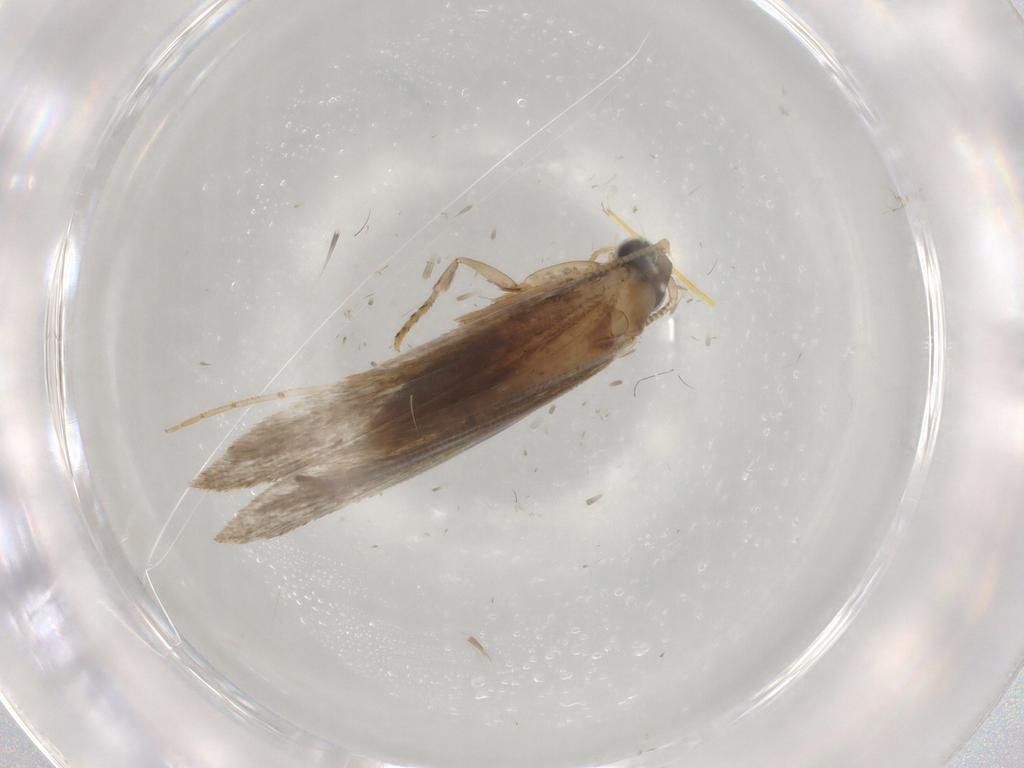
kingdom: Animalia
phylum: Arthropoda
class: Insecta
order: Lepidoptera
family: Noctuidae
